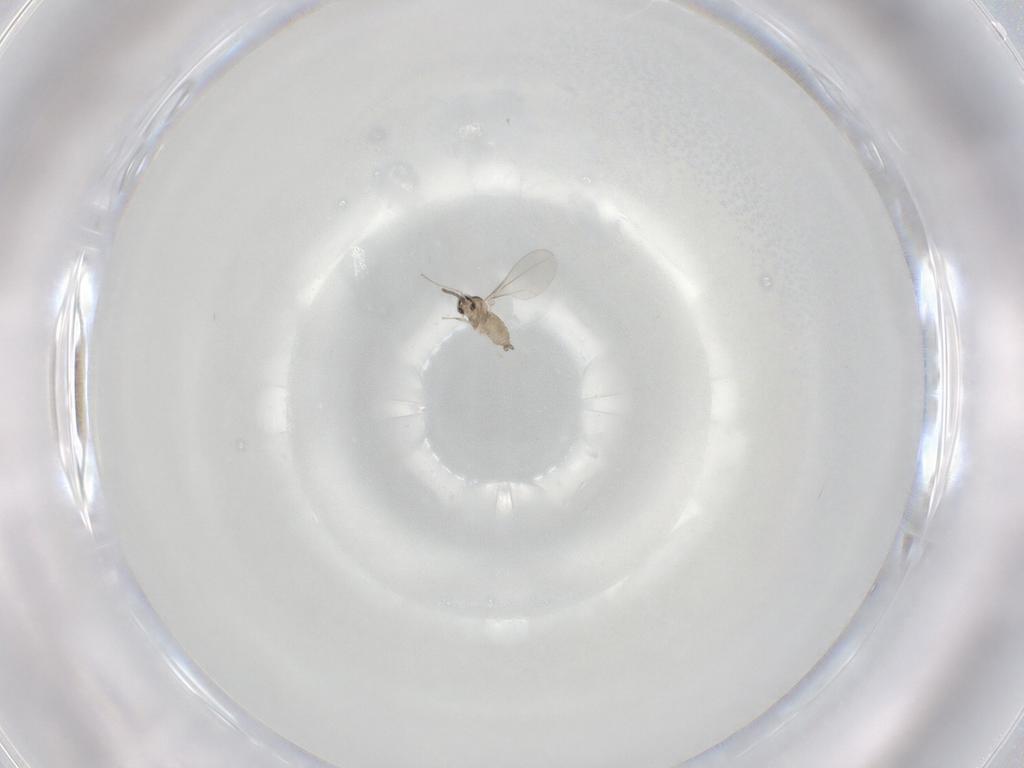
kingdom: Animalia
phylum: Arthropoda
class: Insecta
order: Diptera
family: Cecidomyiidae
